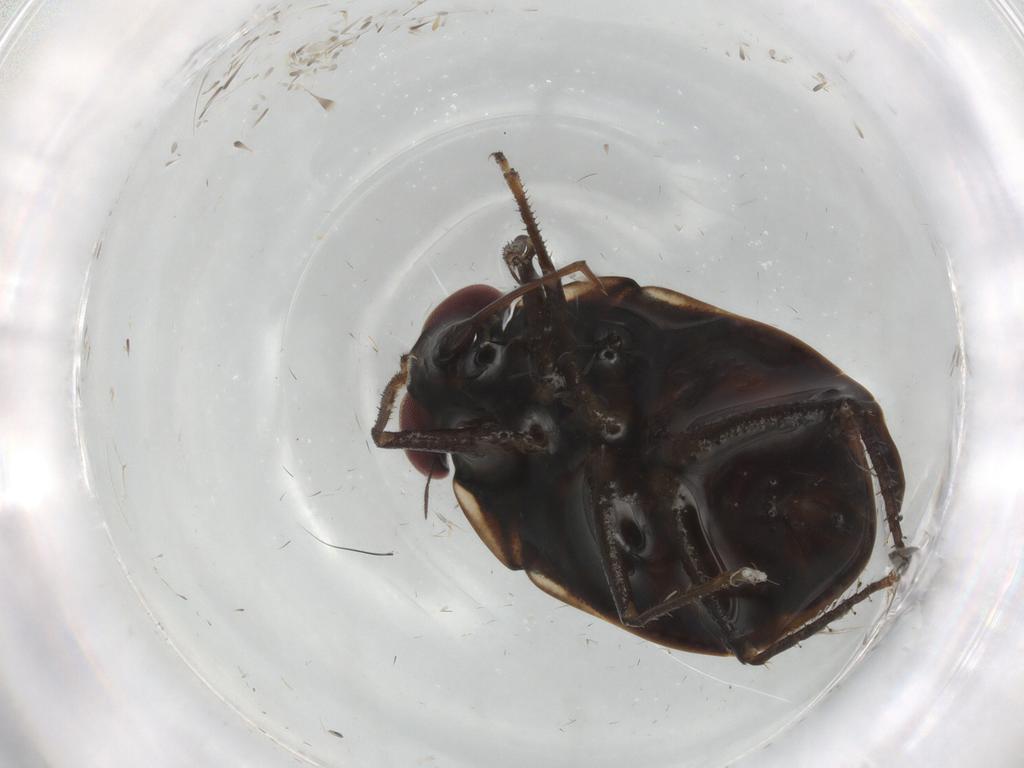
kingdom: Animalia
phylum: Arthropoda
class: Insecta
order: Hemiptera
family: Ochteridae
